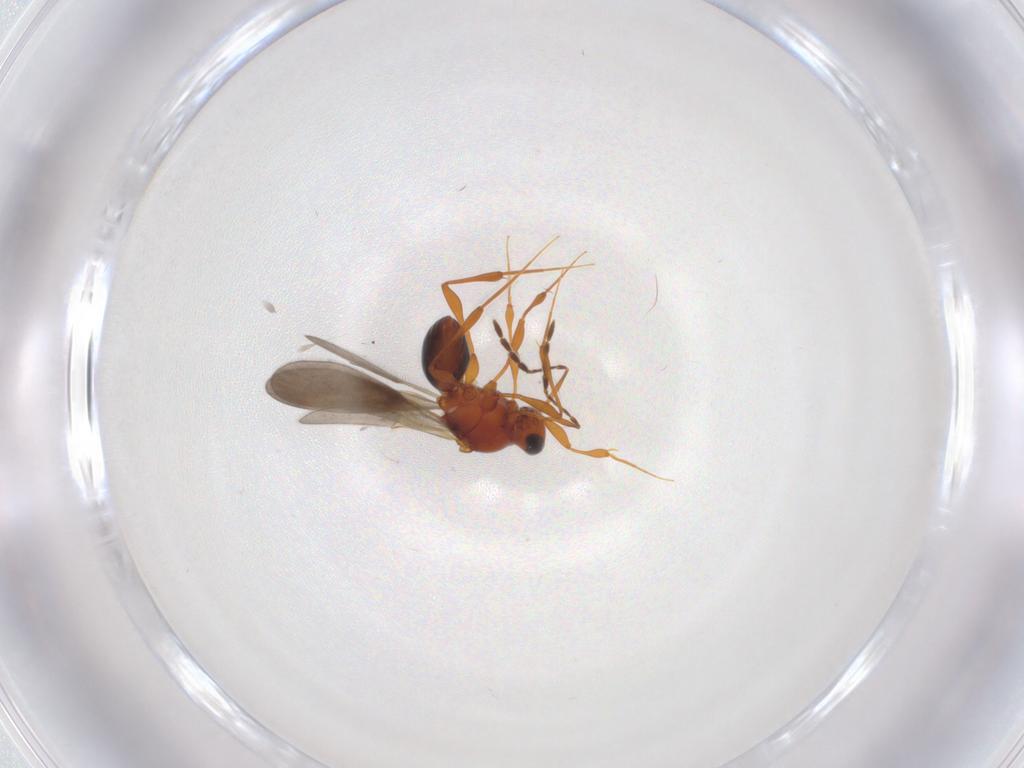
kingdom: Animalia
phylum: Arthropoda
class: Insecta
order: Hymenoptera
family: Platygastridae
